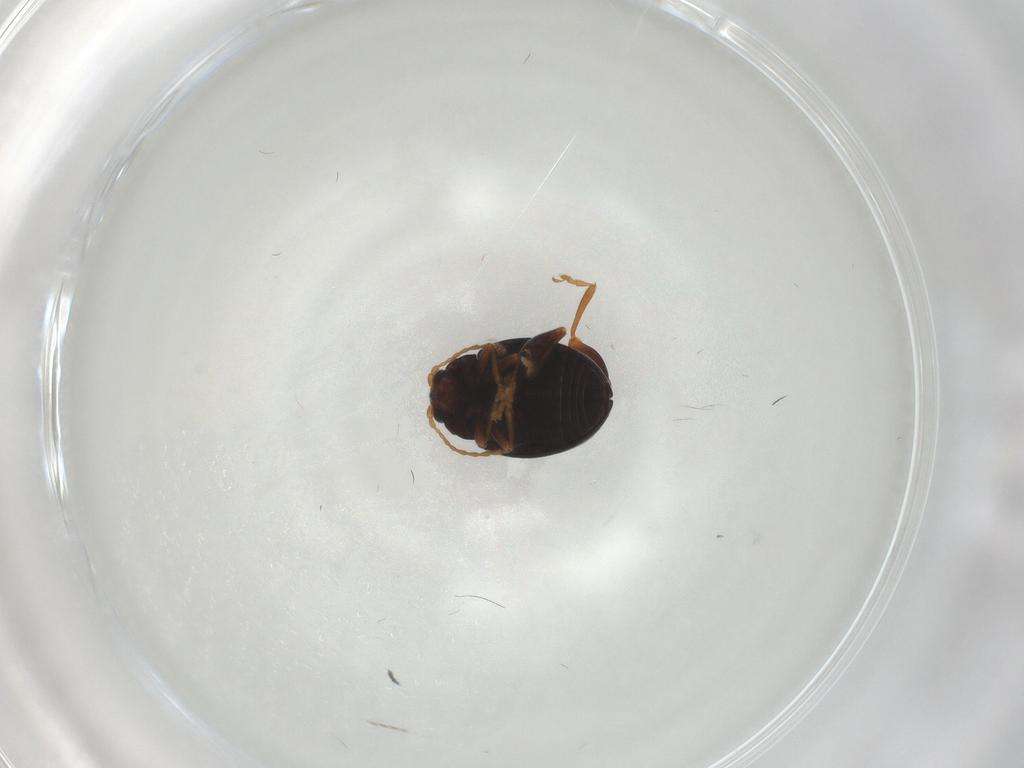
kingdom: Animalia
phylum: Arthropoda
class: Insecta
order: Coleoptera
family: Chrysomelidae
